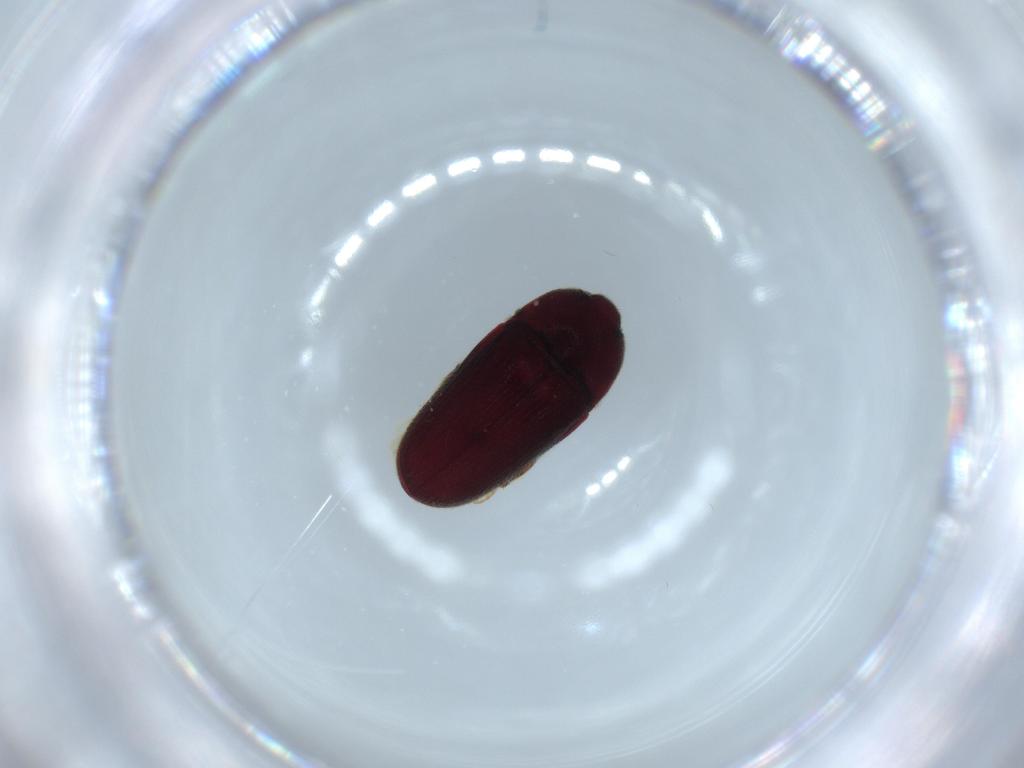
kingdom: Animalia
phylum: Arthropoda
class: Insecta
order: Coleoptera
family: Throscidae
